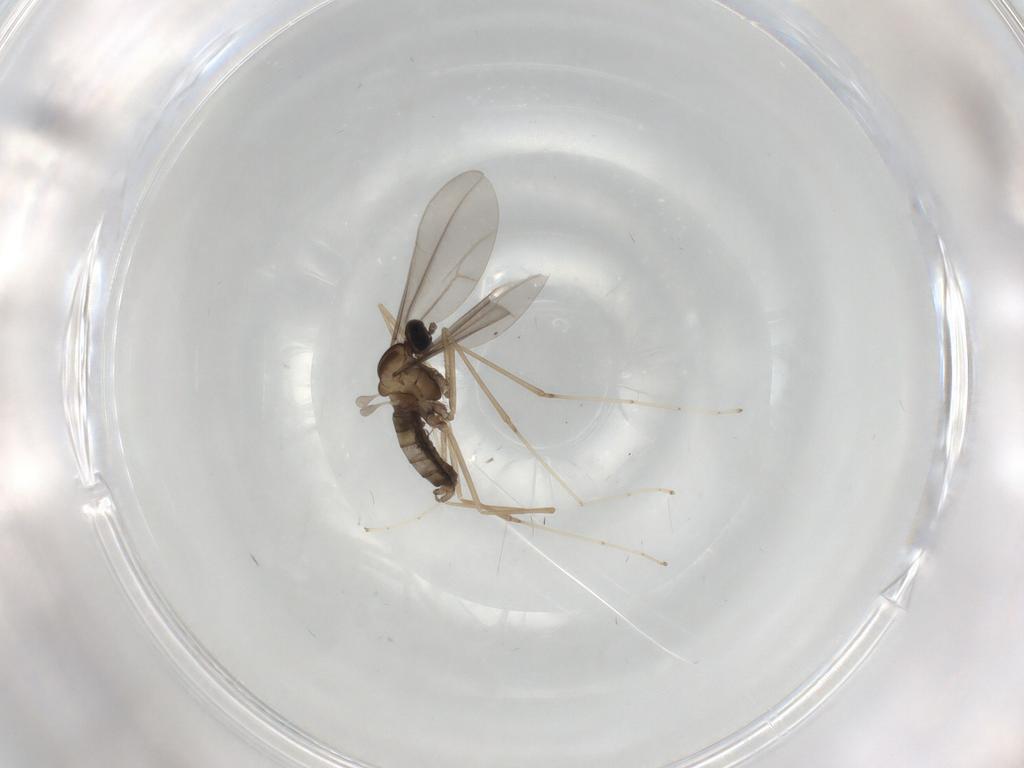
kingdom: Animalia
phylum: Arthropoda
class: Insecta
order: Diptera
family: Cecidomyiidae
